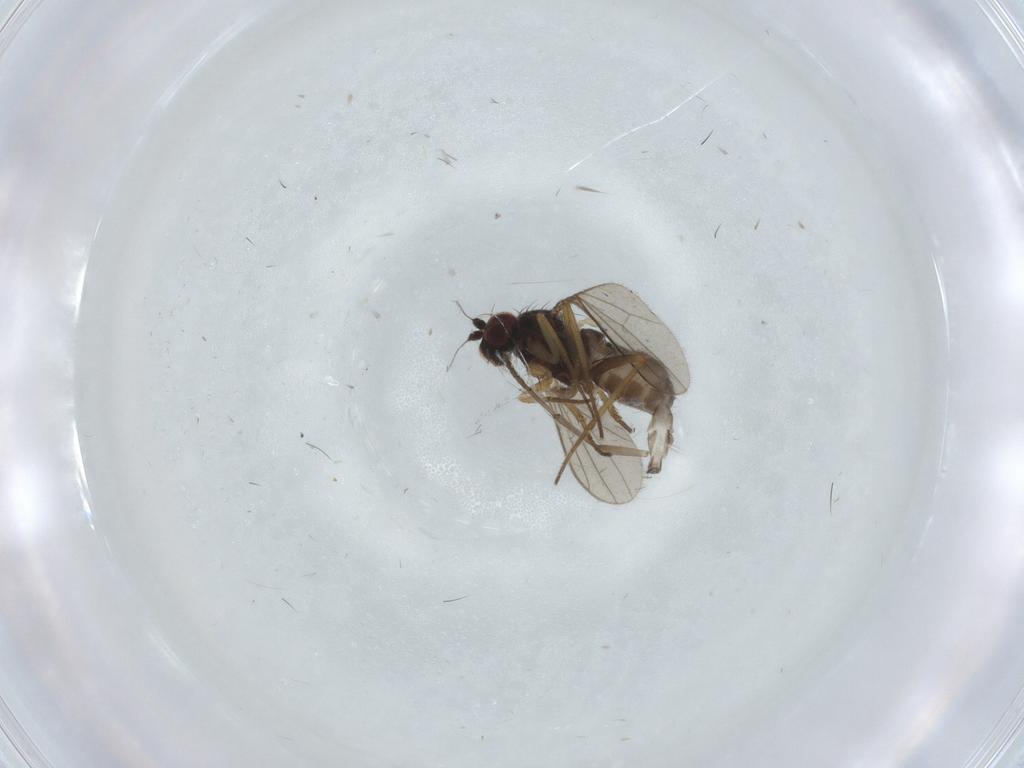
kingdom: Animalia
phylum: Arthropoda
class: Insecta
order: Diptera
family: Dolichopodidae
